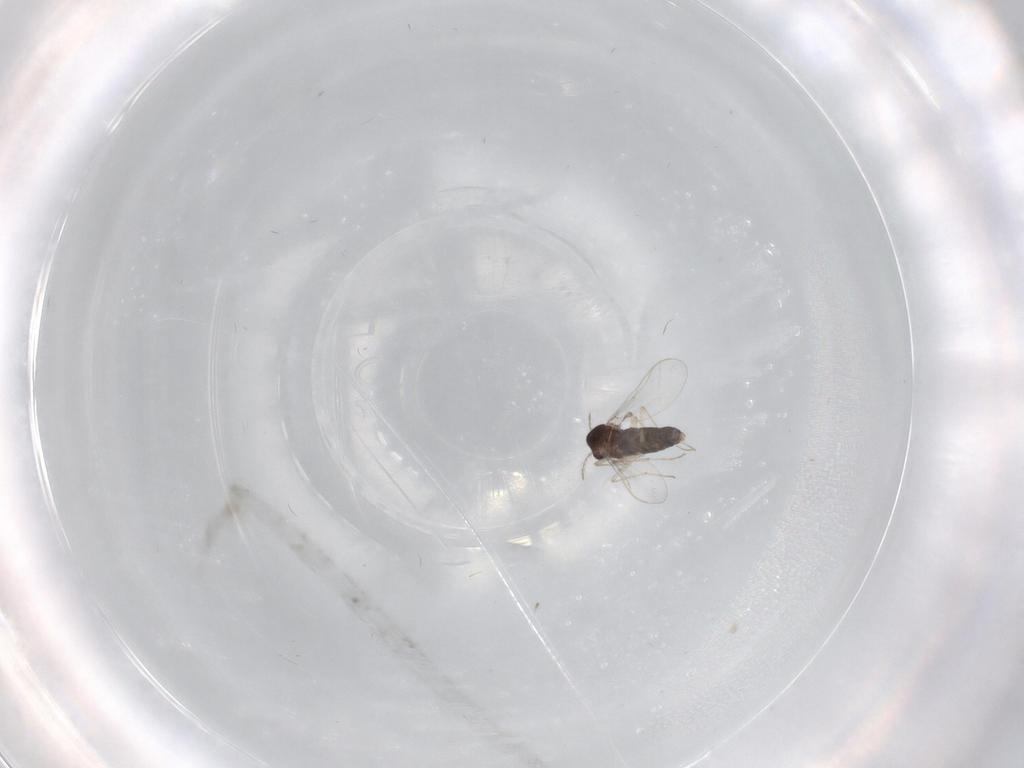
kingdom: Animalia
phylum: Arthropoda
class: Insecta
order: Diptera
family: Chironomidae
